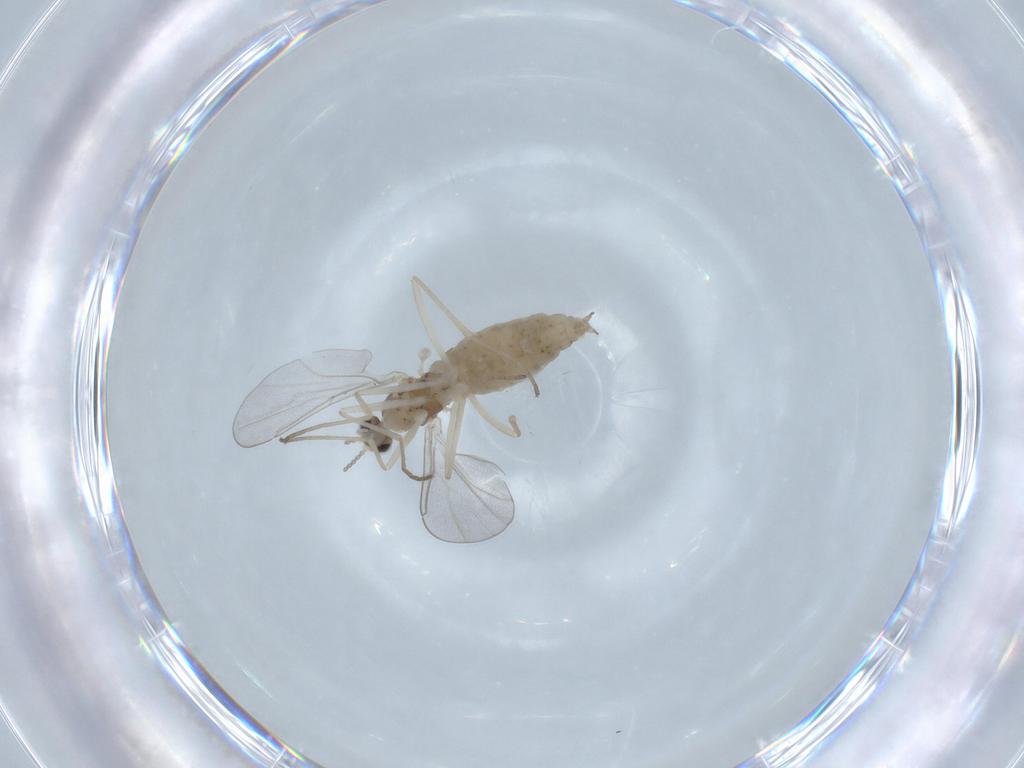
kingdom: Animalia
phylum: Arthropoda
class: Insecta
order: Diptera
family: Cecidomyiidae
